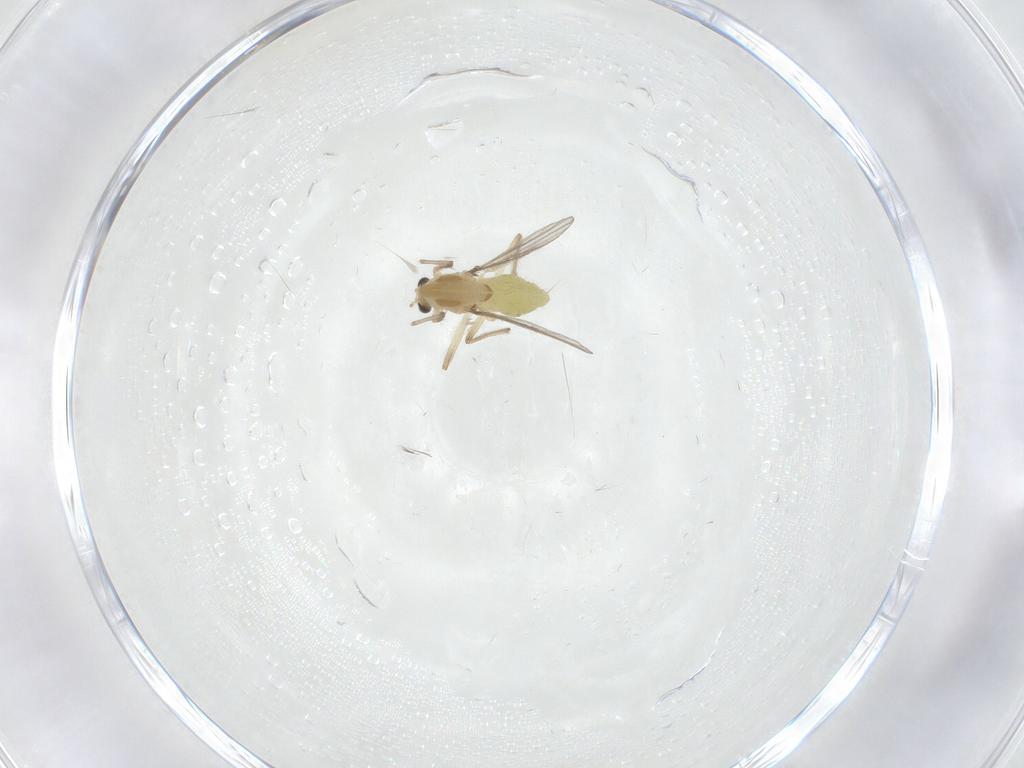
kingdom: Animalia
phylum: Arthropoda
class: Insecta
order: Diptera
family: Chironomidae
